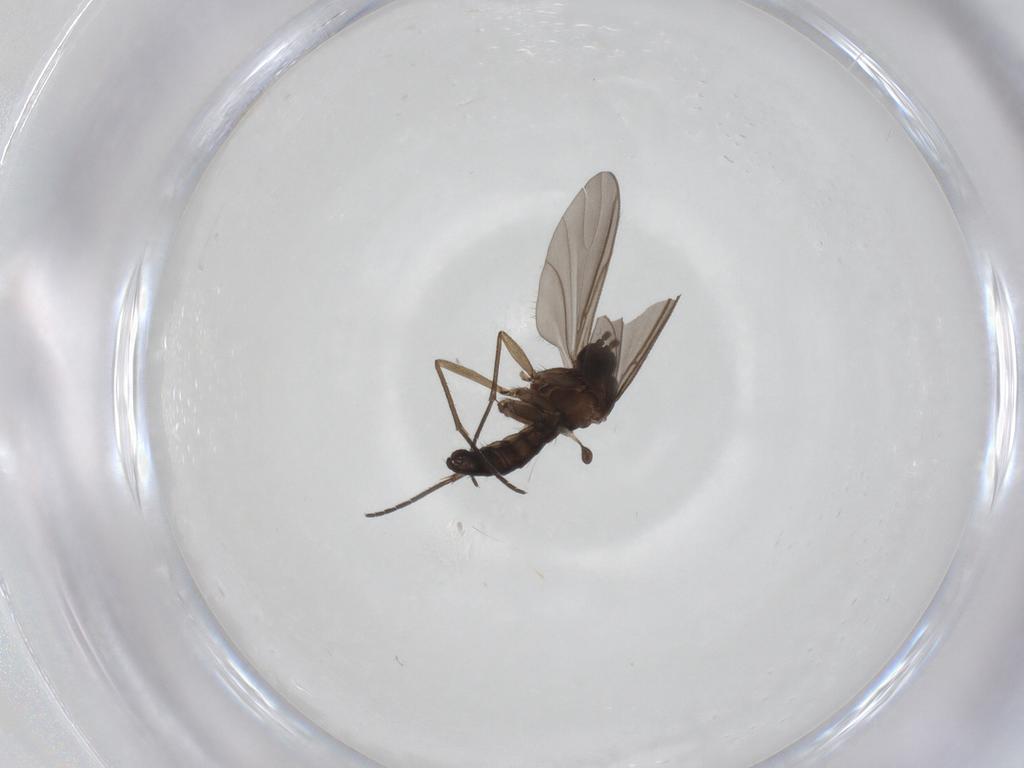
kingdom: Animalia
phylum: Arthropoda
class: Insecta
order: Diptera
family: Sciaridae
